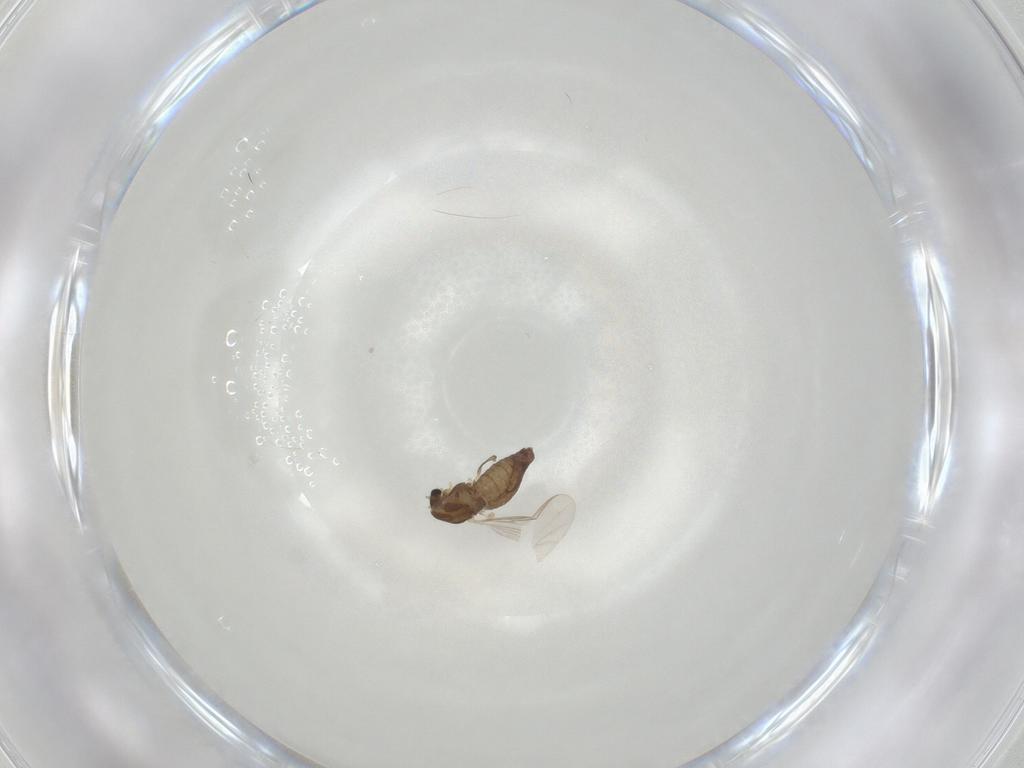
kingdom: Animalia
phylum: Arthropoda
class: Insecta
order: Diptera
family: Chironomidae
